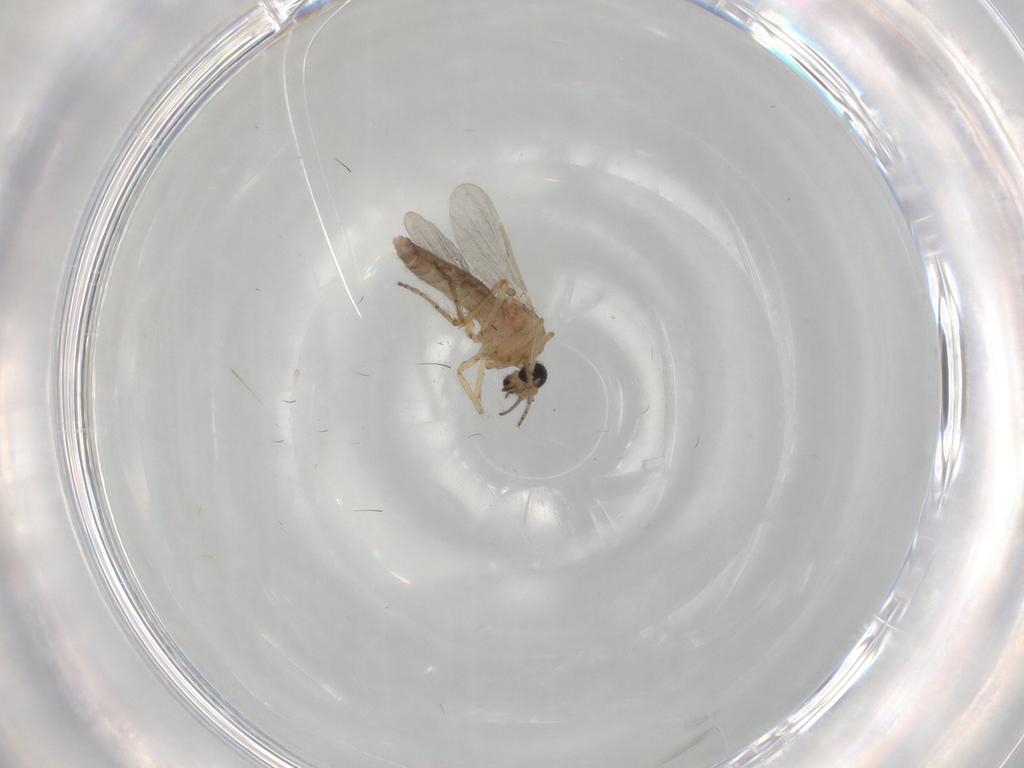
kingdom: Animalia
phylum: Arthropoda
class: Insecta
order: Diptera
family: Ceratopogonidae
